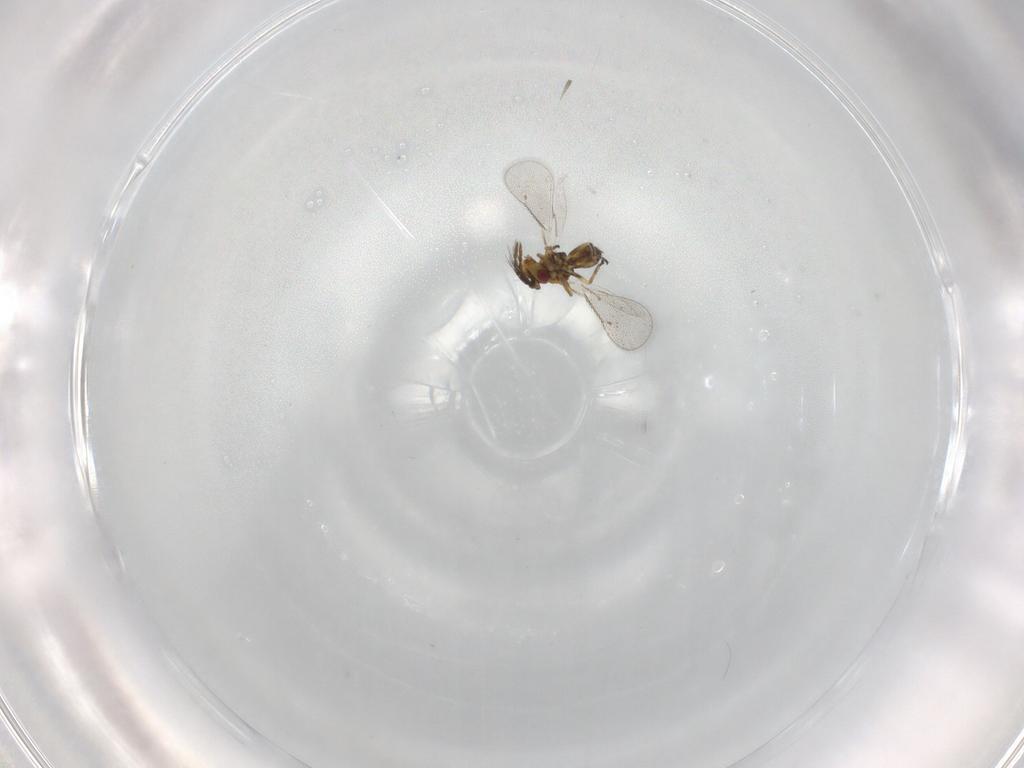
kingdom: Animalia
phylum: Arthropoda
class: Insecta
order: Hymenoptera
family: Eulophidae
